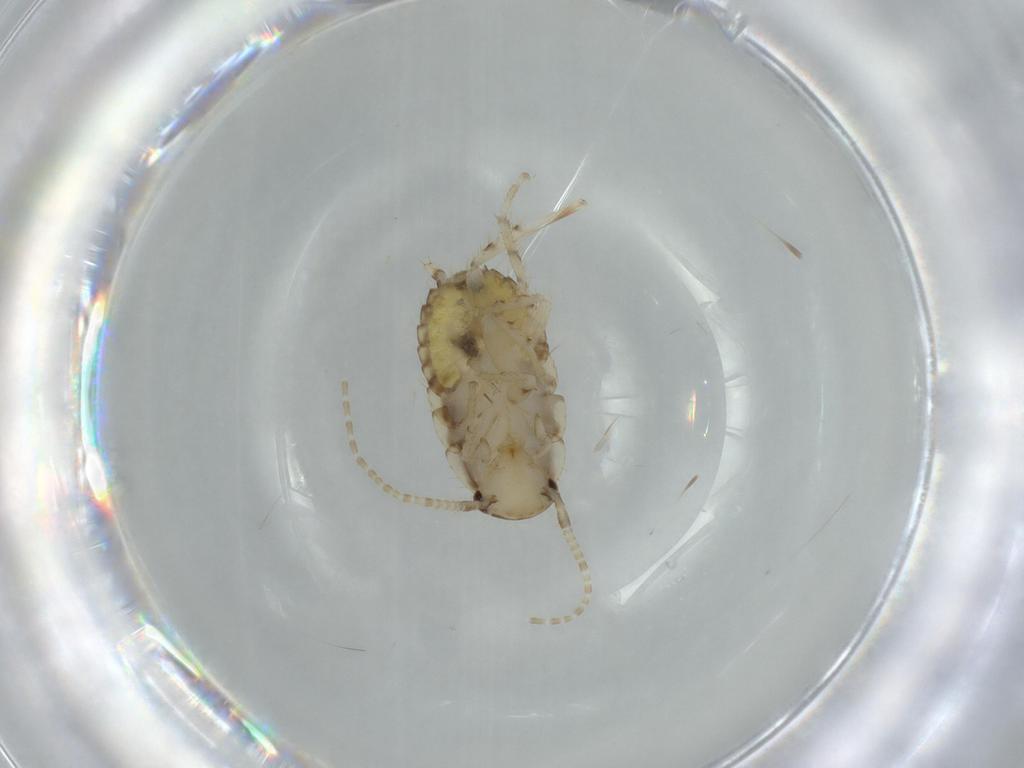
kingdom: Animalia
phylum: Arthropoda
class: Insecta
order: Blattodea
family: Ectobiidae
